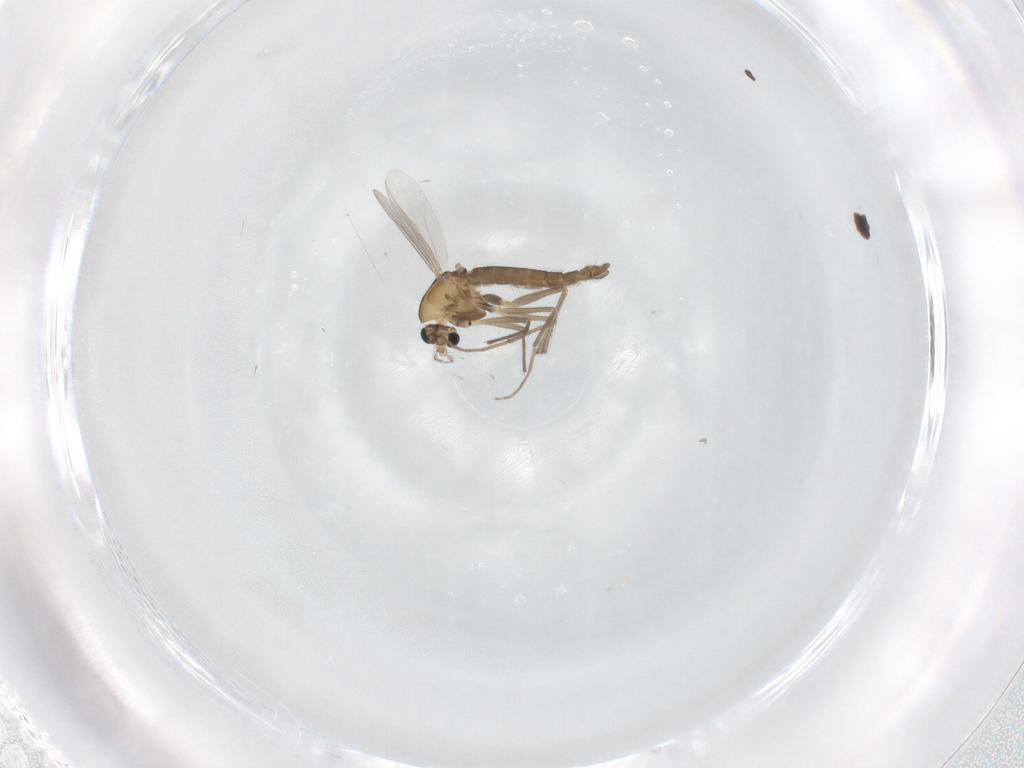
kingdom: Animalia
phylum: Arthropoda
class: Insecta
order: Diptera
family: Chironomidae
